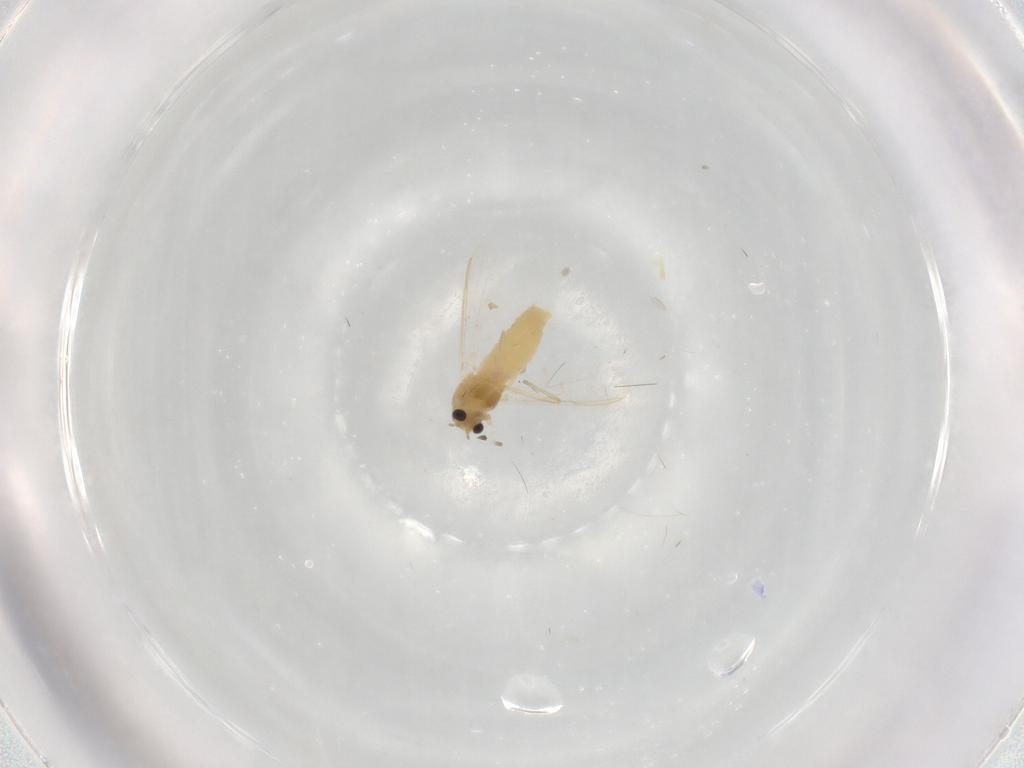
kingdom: Animalia
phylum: Arthropoda
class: Insecta
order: Diptera
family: Chironomidae
